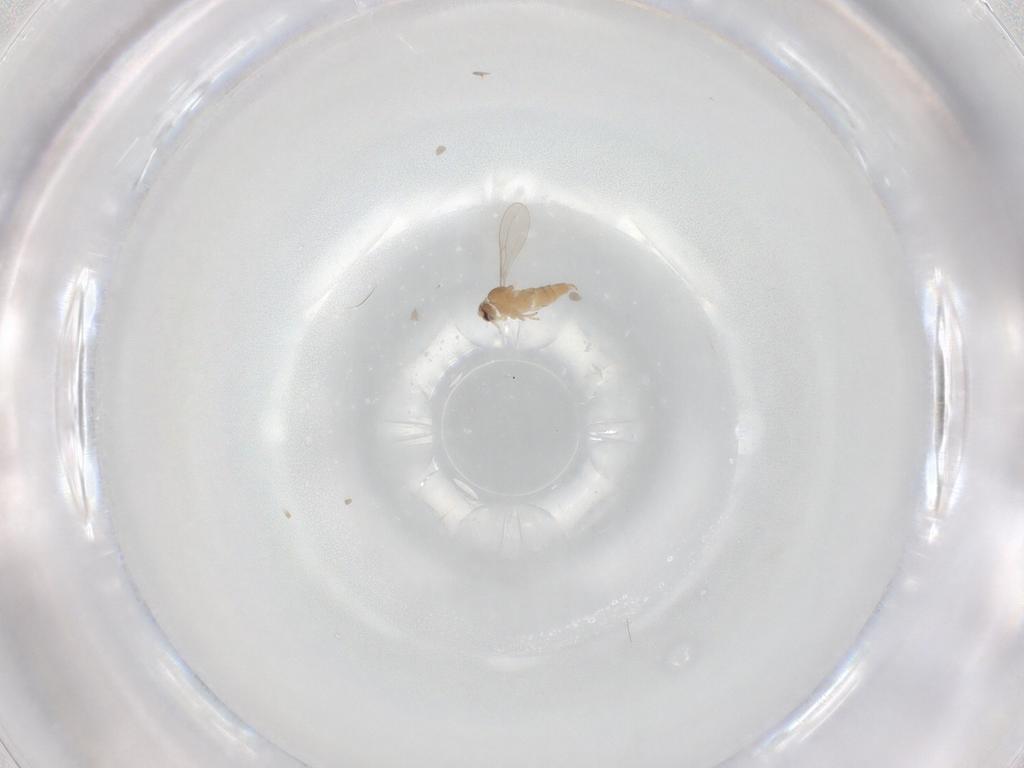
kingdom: Animalia
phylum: Arthropoda
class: Insecta
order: Diptera
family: Cecidomyiidae
